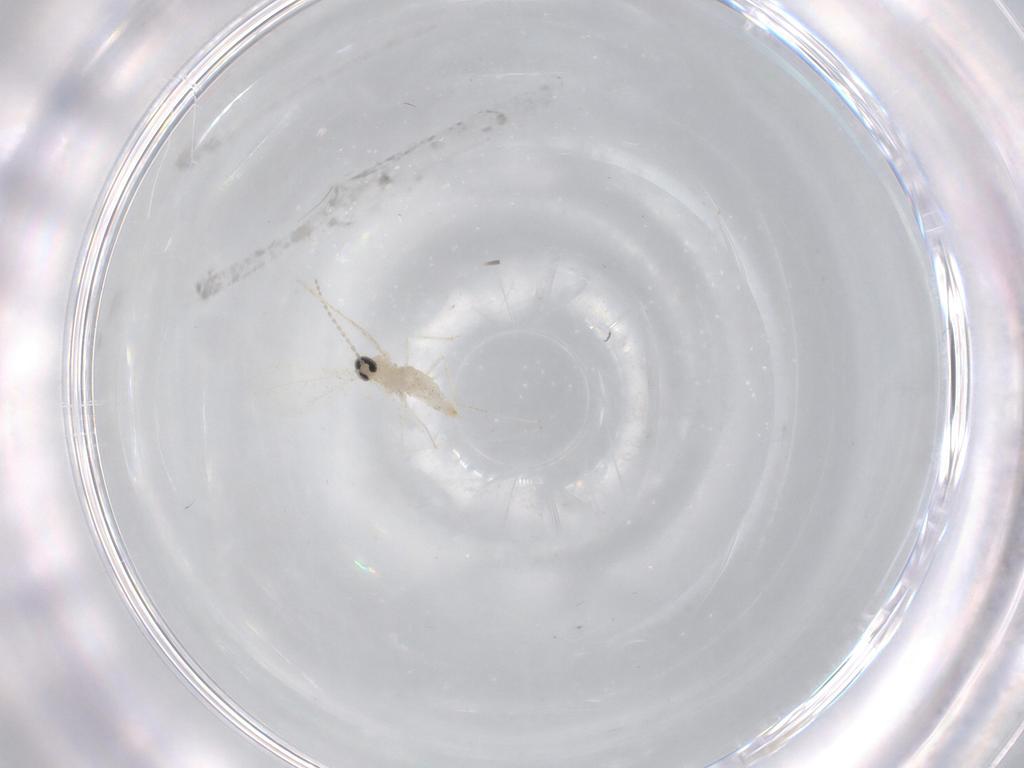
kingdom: Animalia
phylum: Arthropoda
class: Insecta
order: Diptera
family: Cecidomyiidae
